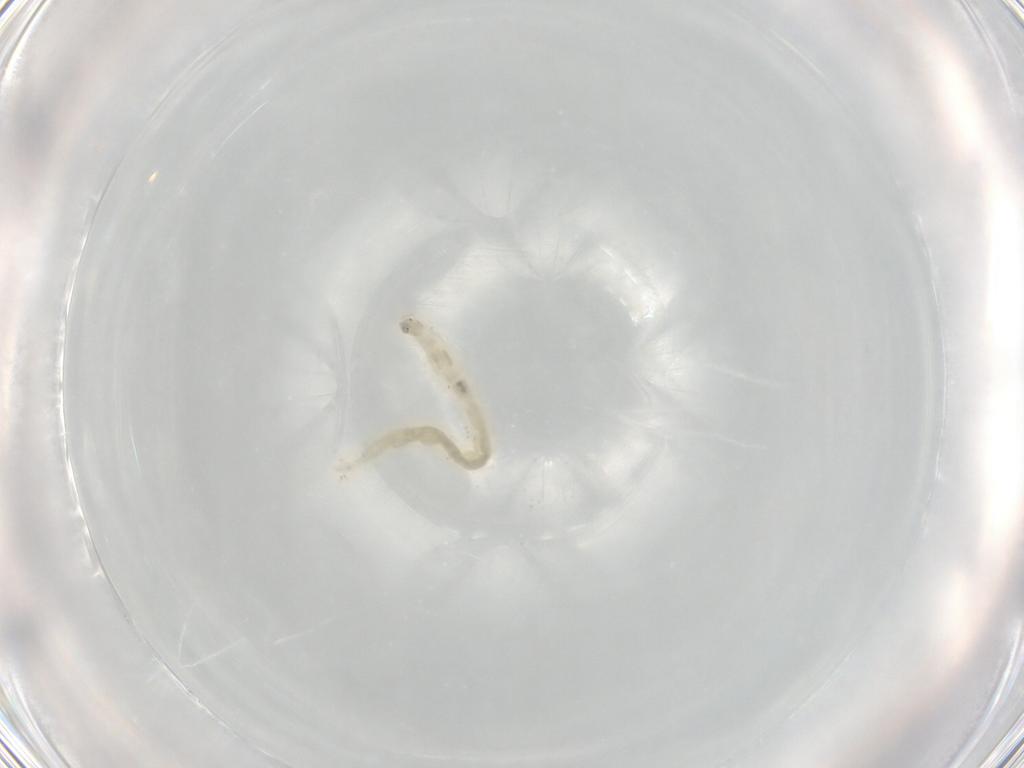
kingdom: Animalia
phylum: Arthropoda
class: Insecta
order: Diptera
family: Chironomidae
